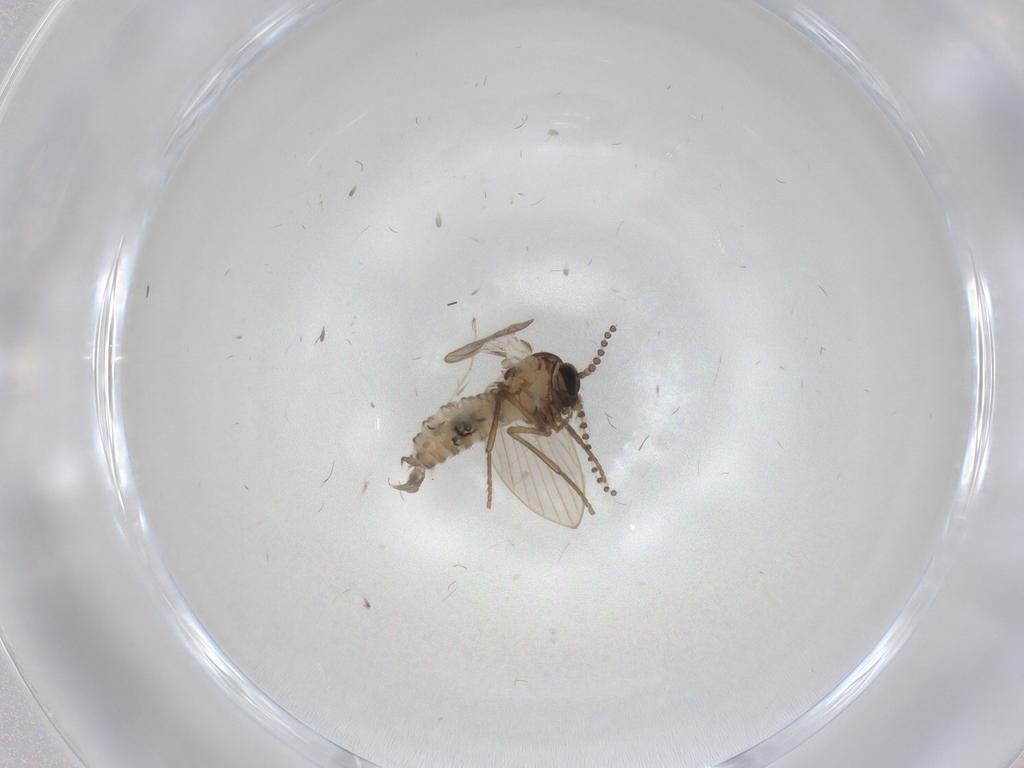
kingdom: Animalia
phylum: Arthropoda
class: Insecta
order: Diptera
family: Psychodidae
